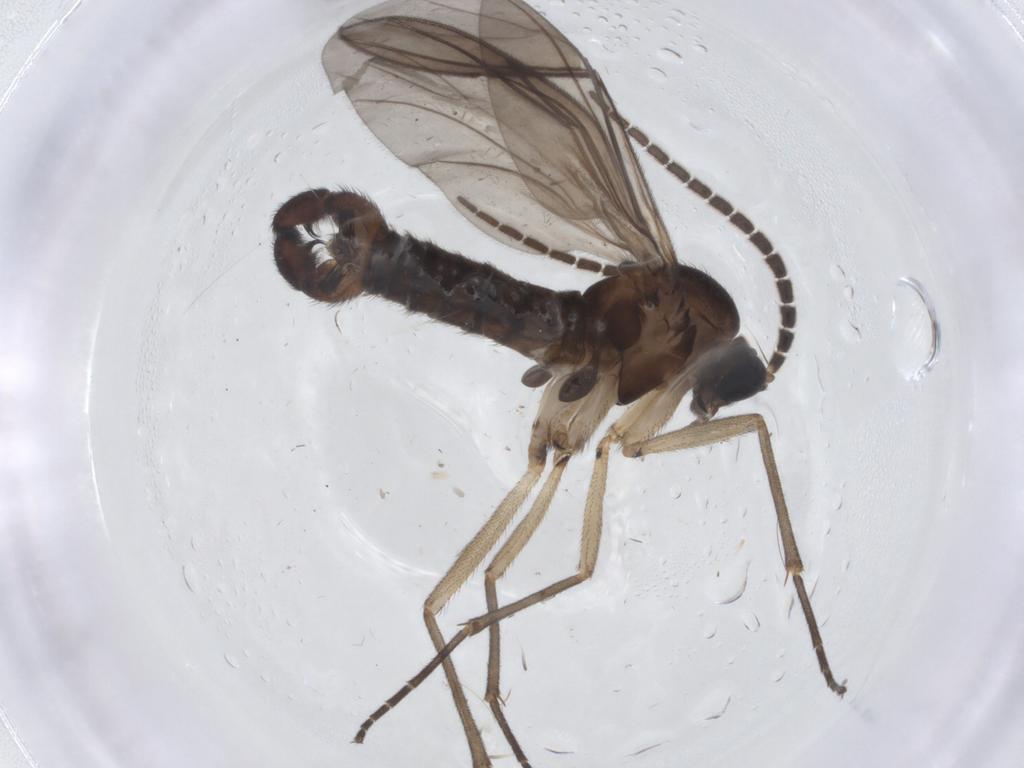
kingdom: Animalia
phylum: Arthropoda
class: Insecta
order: Diptera
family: Sciaridae
